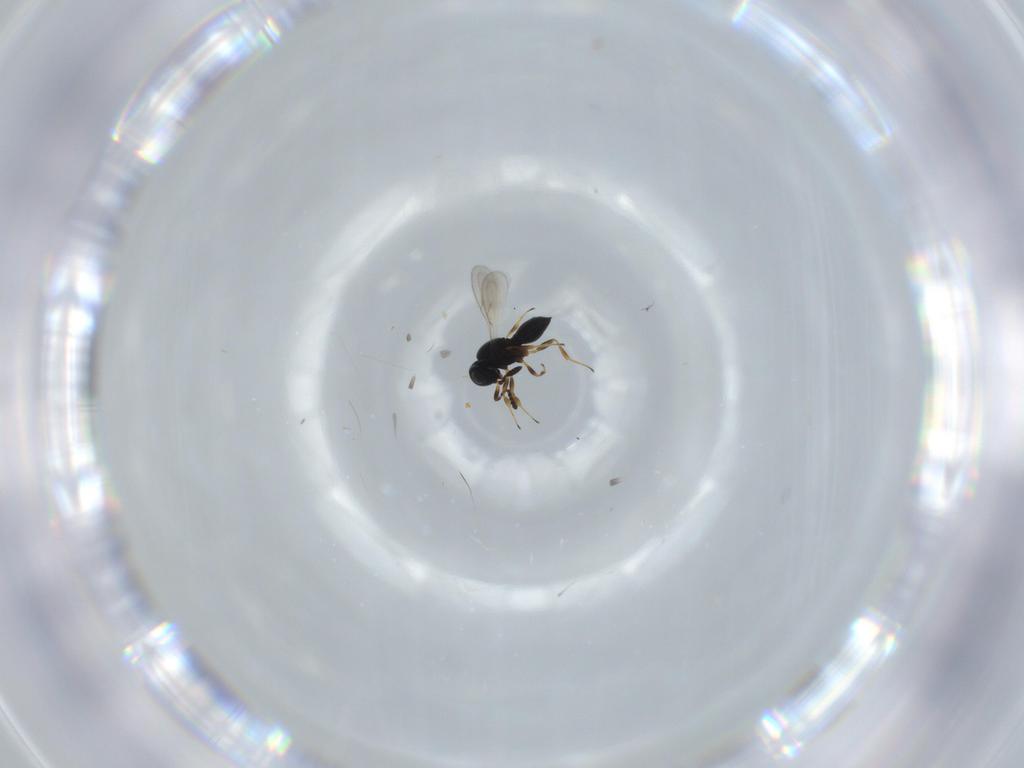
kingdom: Animalia
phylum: Arthropoda
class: Insecta
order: Hymenoptera
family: Scelionidae
